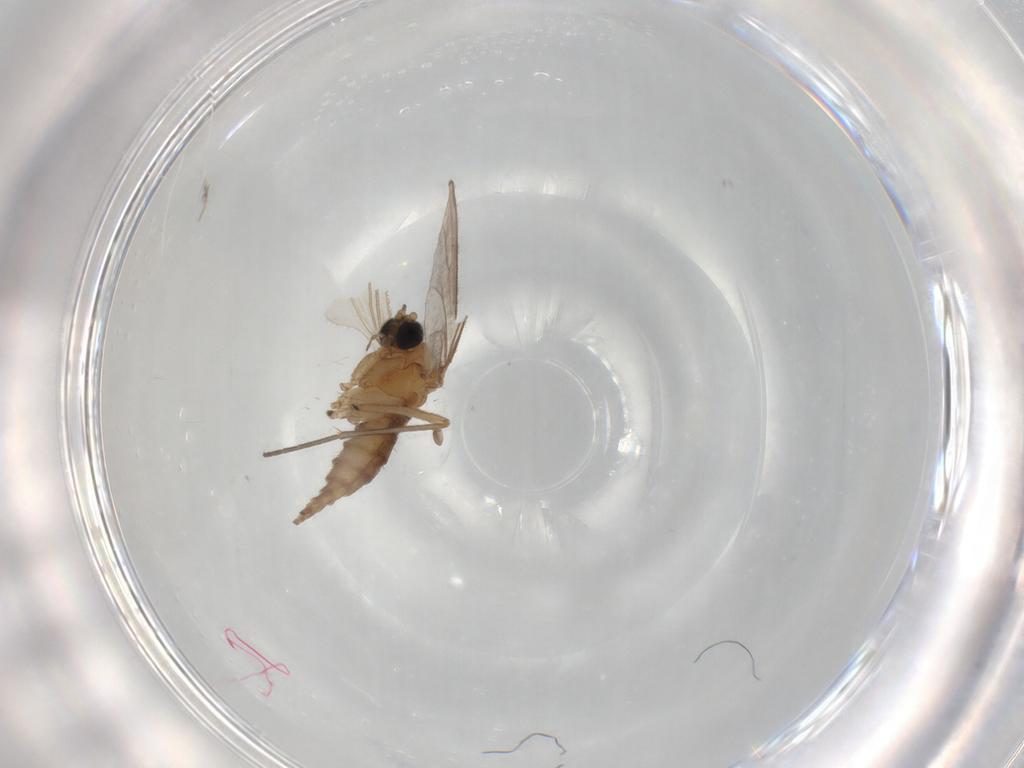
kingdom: Animalia
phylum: Arthropoda
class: Insecta
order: Diptera
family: Sciaridae
